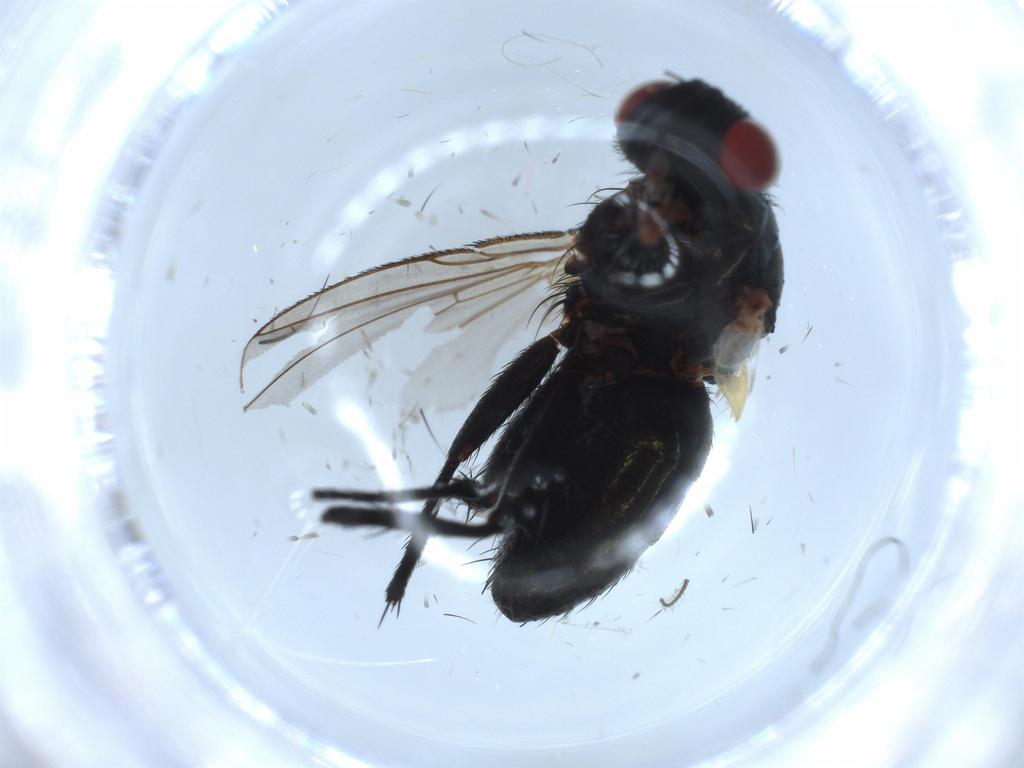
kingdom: Animalia
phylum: Arthropoda
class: Insecta
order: Diptera
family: Tachinidae
